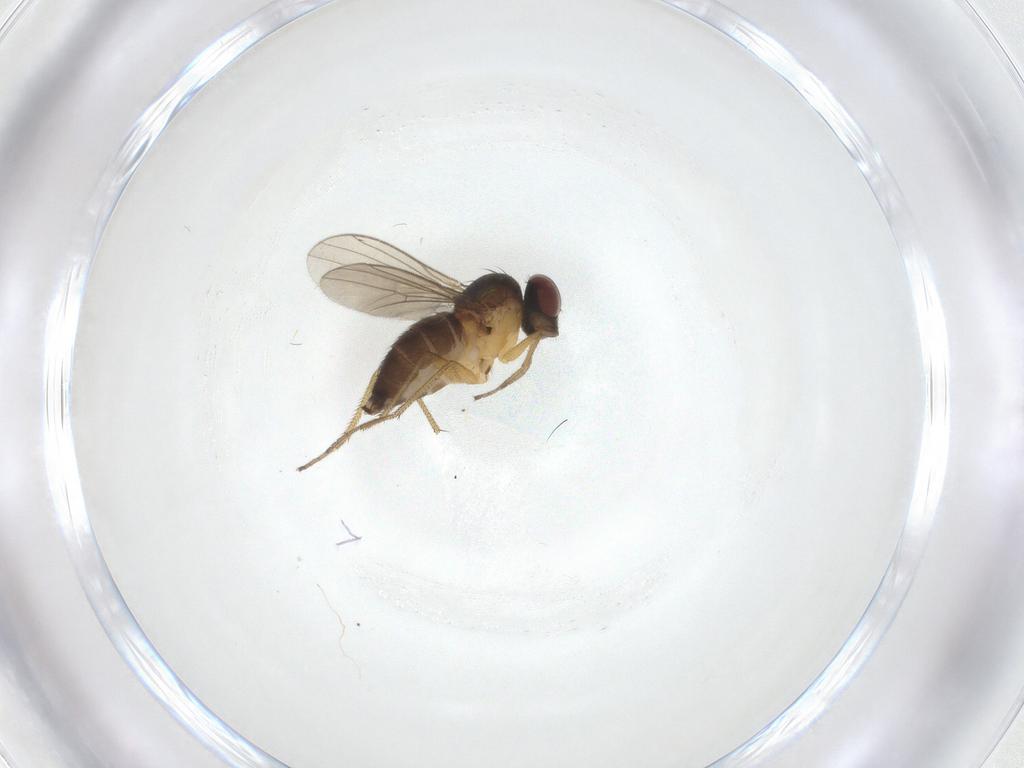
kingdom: Animalia
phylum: Arthropoda
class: Insecta
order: Diptera
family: Dolichopodidae
